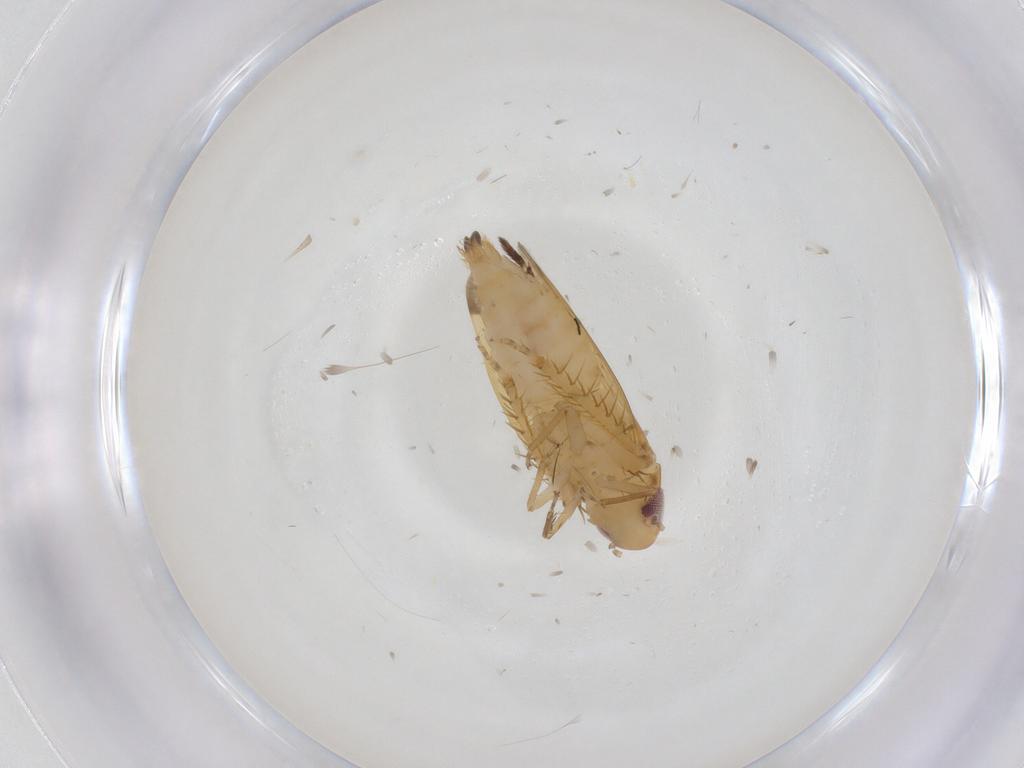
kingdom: Animalia
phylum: Arthropoda
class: Insecta
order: Hemiptera
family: Cicadellidae
